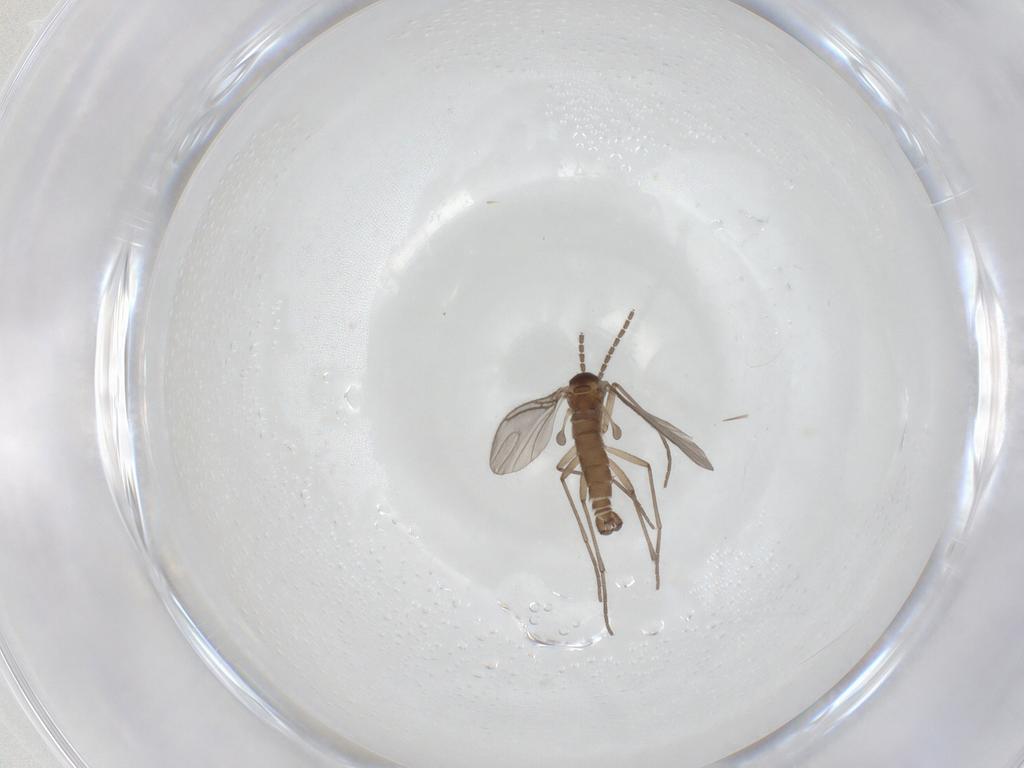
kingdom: Animalia
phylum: Arthropoda
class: Insecta
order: Diptera
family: Sciaridae
